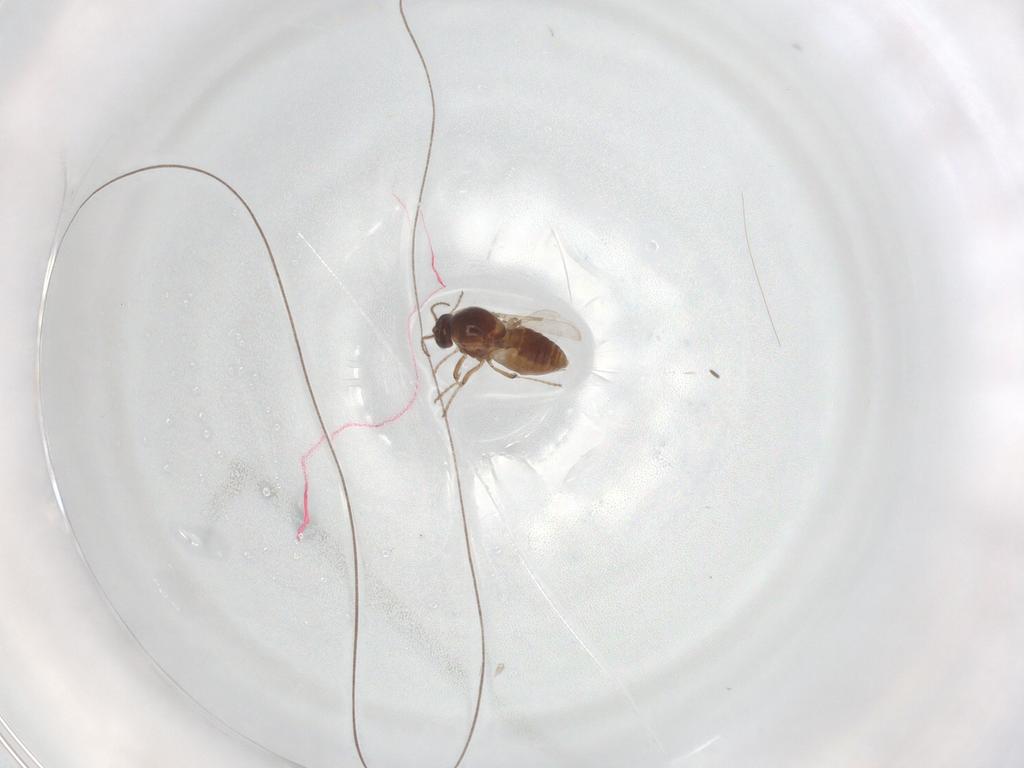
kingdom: Animalia
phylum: Arthropoda
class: Insecta
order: Diptera
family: Ceratopogonidae
